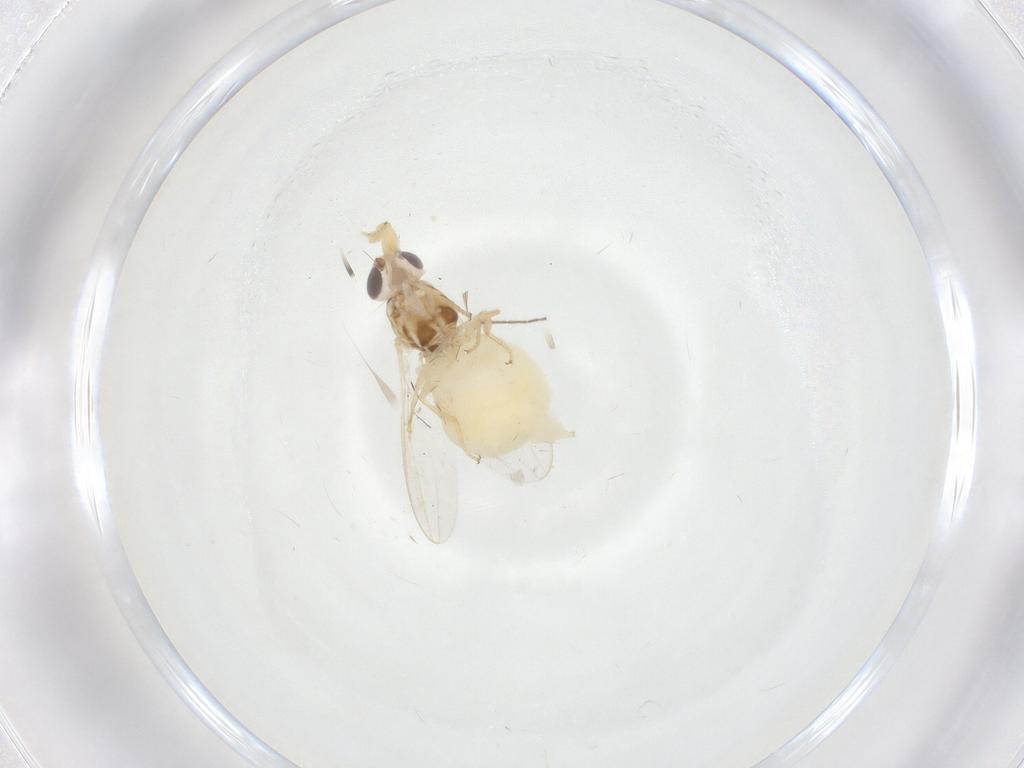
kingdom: Animalia
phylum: Arthropoda
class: Insecta
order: Diptera
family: Chloropidae
